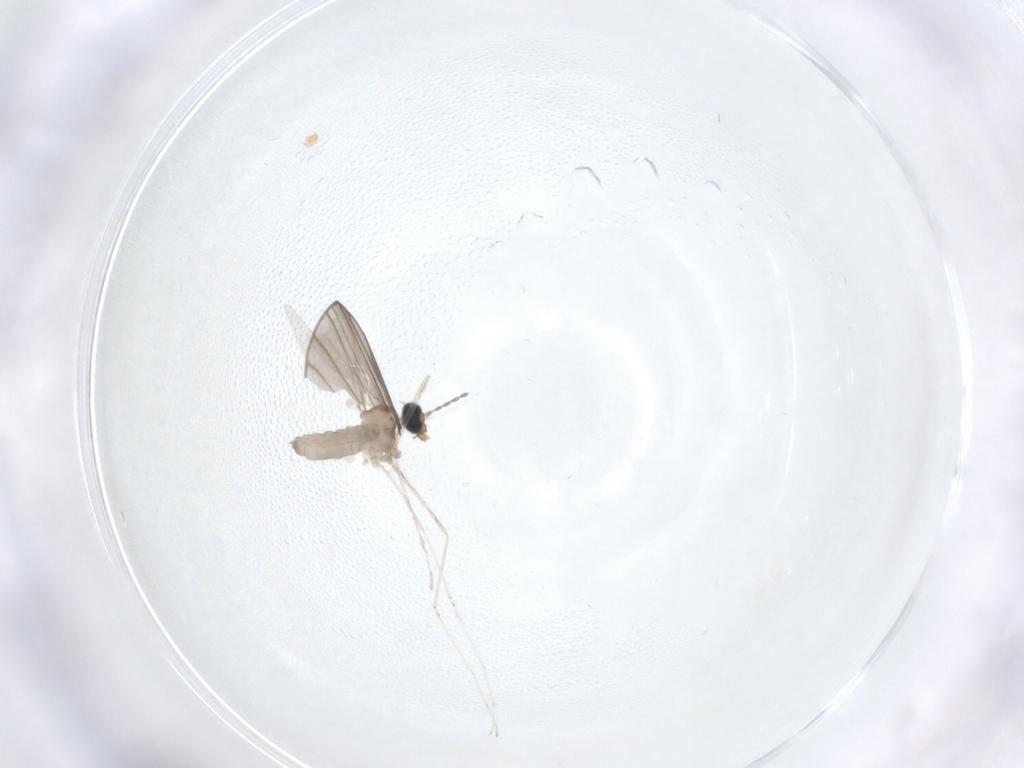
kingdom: Animalia
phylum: Arthropoda
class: Insecta
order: Diptera
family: Cecidomyiidae
